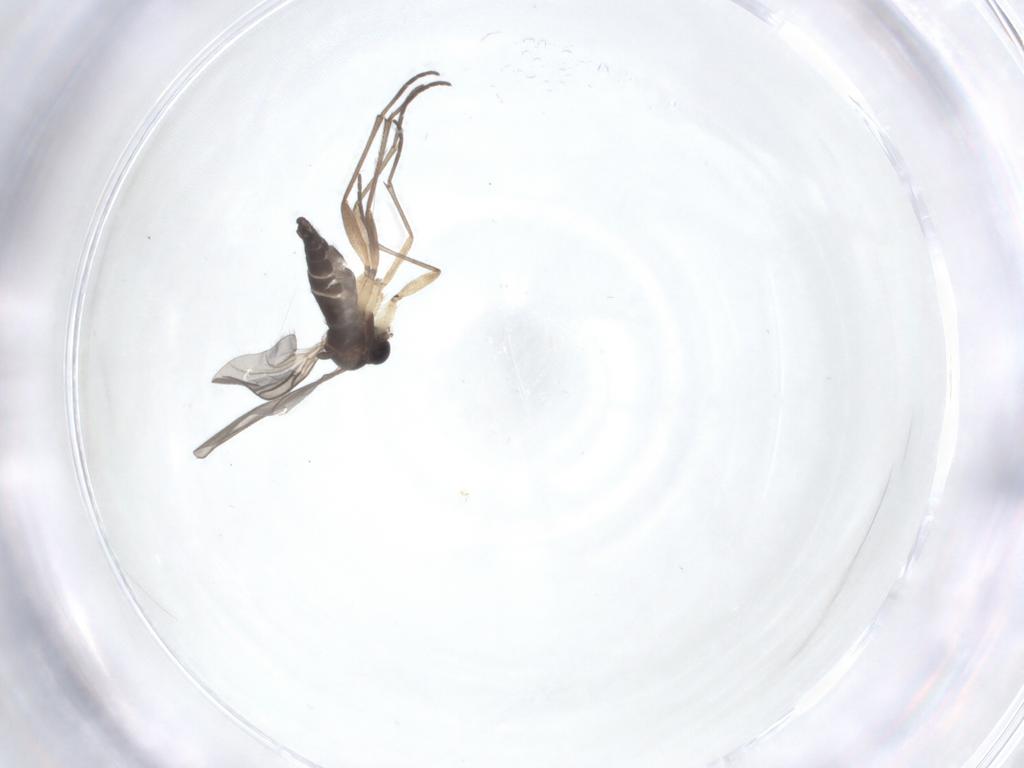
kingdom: Animalia
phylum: Arthropoda
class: Insecta
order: Diptera
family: Sciaridae
